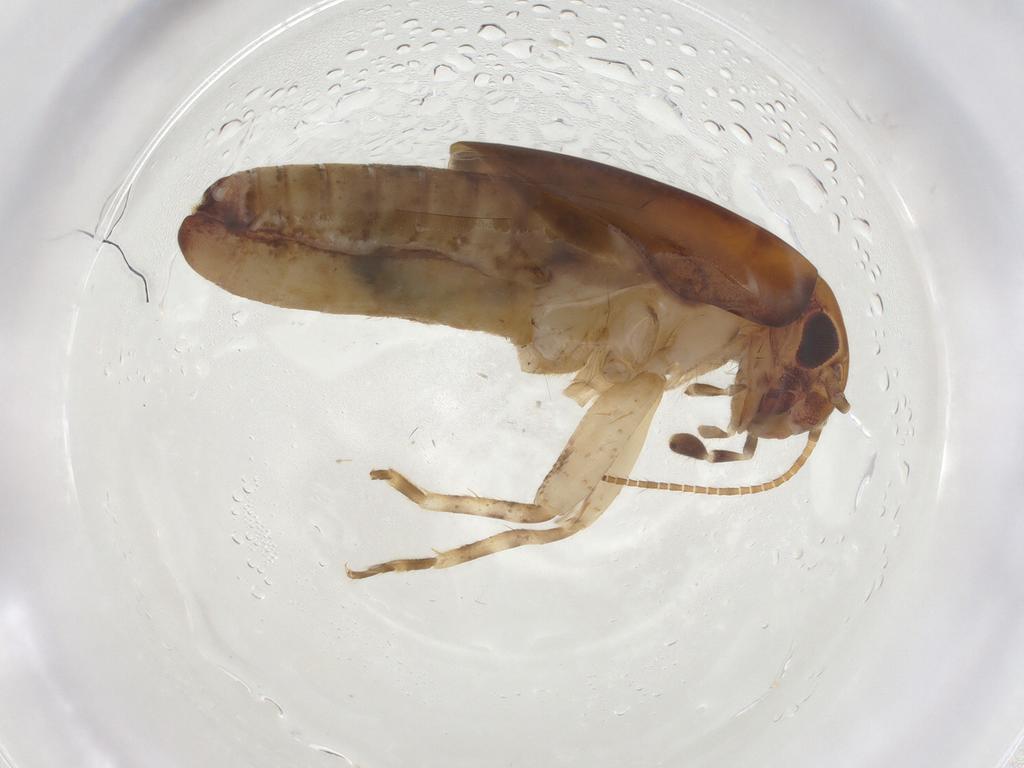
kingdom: Animalia
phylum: Arthropoda
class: Insecta
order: Orthoptera
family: Mogoplistidae
